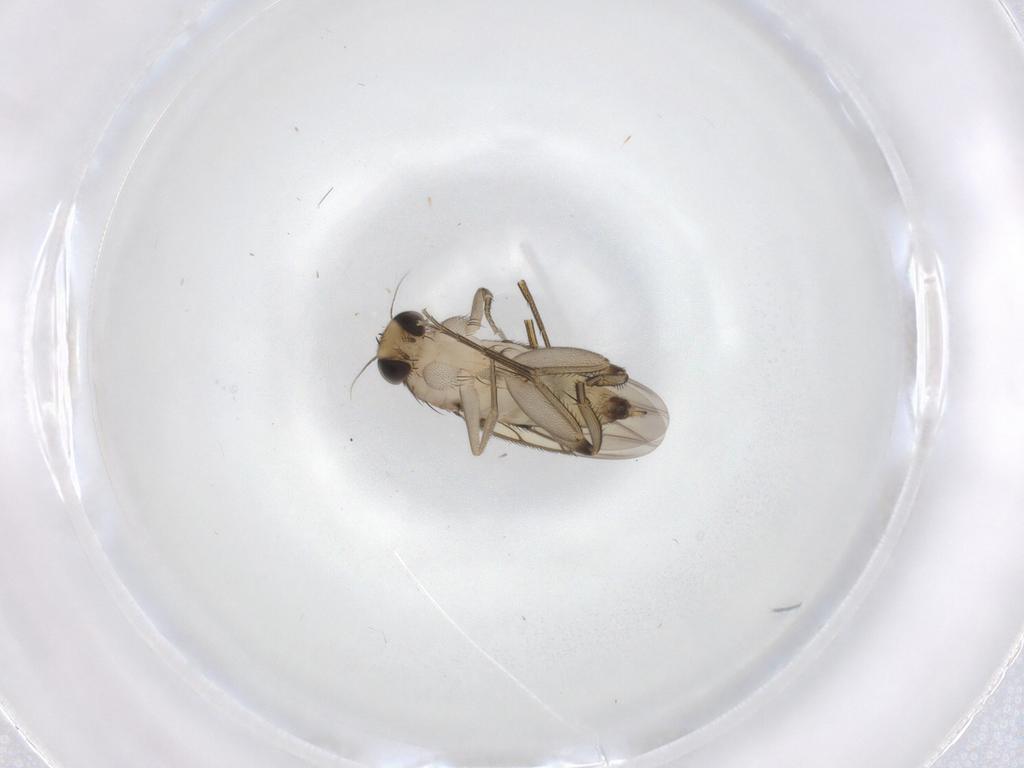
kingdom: Animalia
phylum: Arthropoda
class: Insecta
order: Diptera
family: Phoridae
